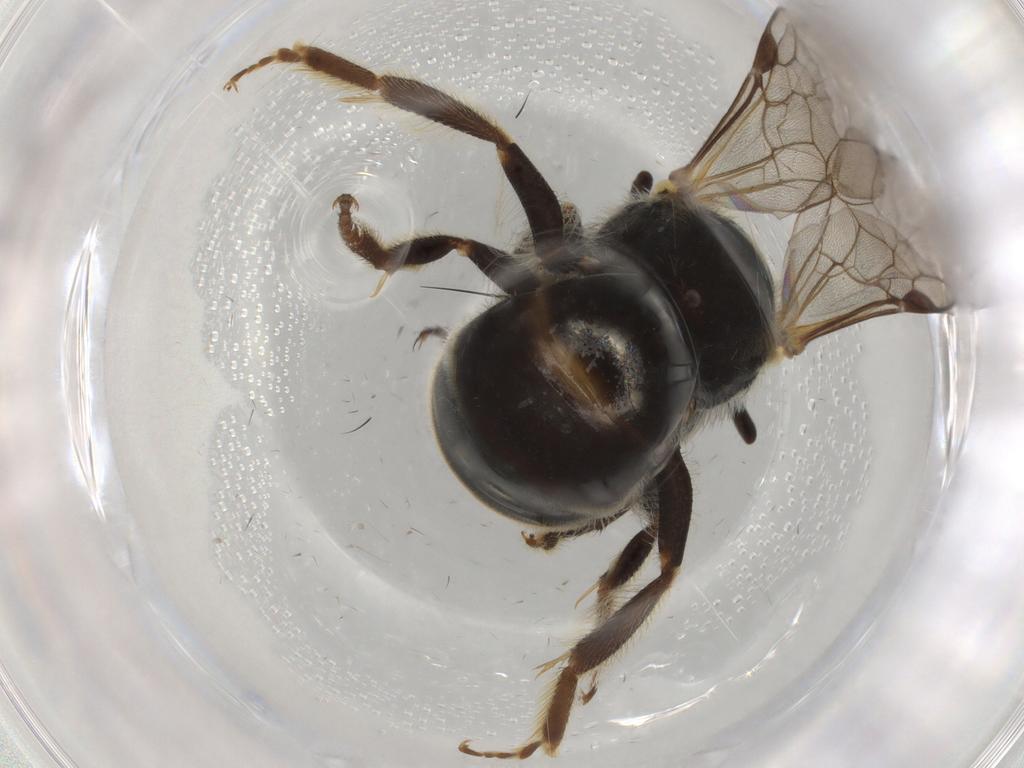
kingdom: Animalia
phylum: Arthropoda
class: Insecta
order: Hymenoptera
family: Halictidae
